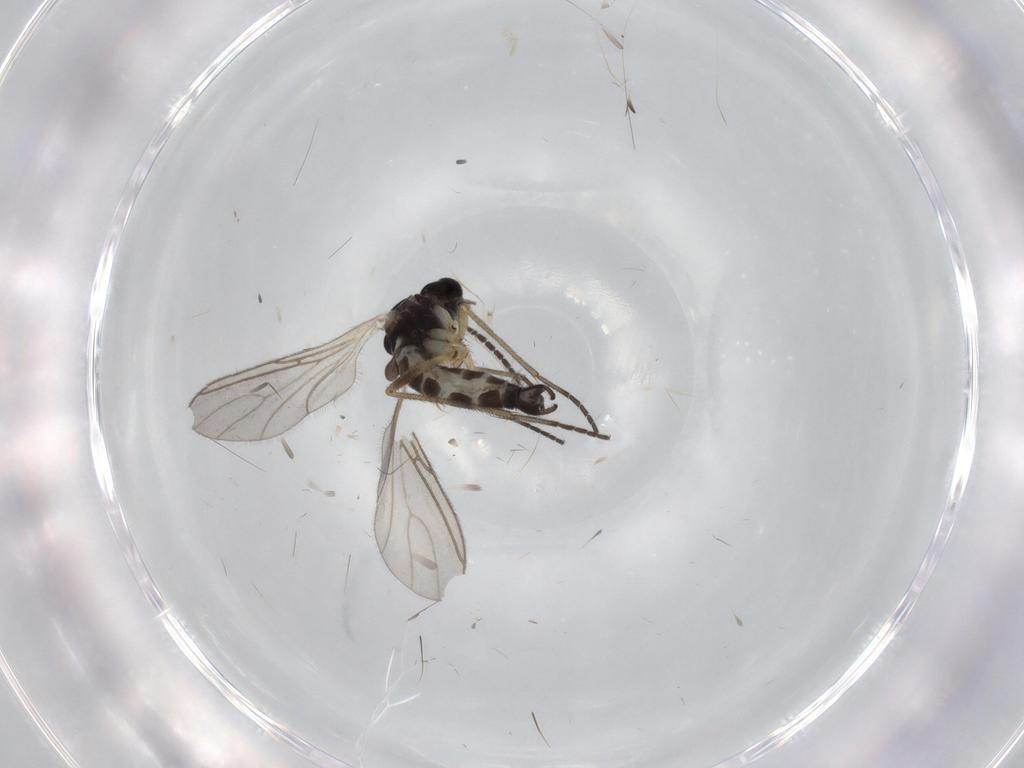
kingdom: Animalia
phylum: Arthropoda
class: Insecta
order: Diptera
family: Sciaridae
